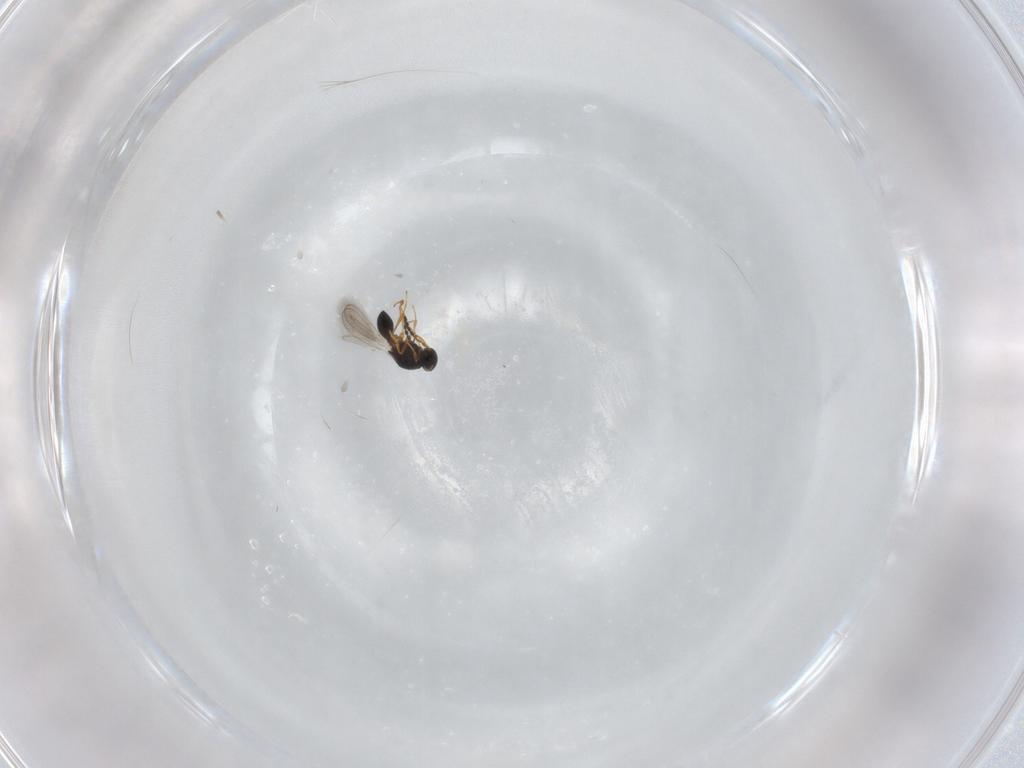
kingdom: Animalia
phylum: Arthropoda
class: Insecta
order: Hymenoptera
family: Platygastridae
